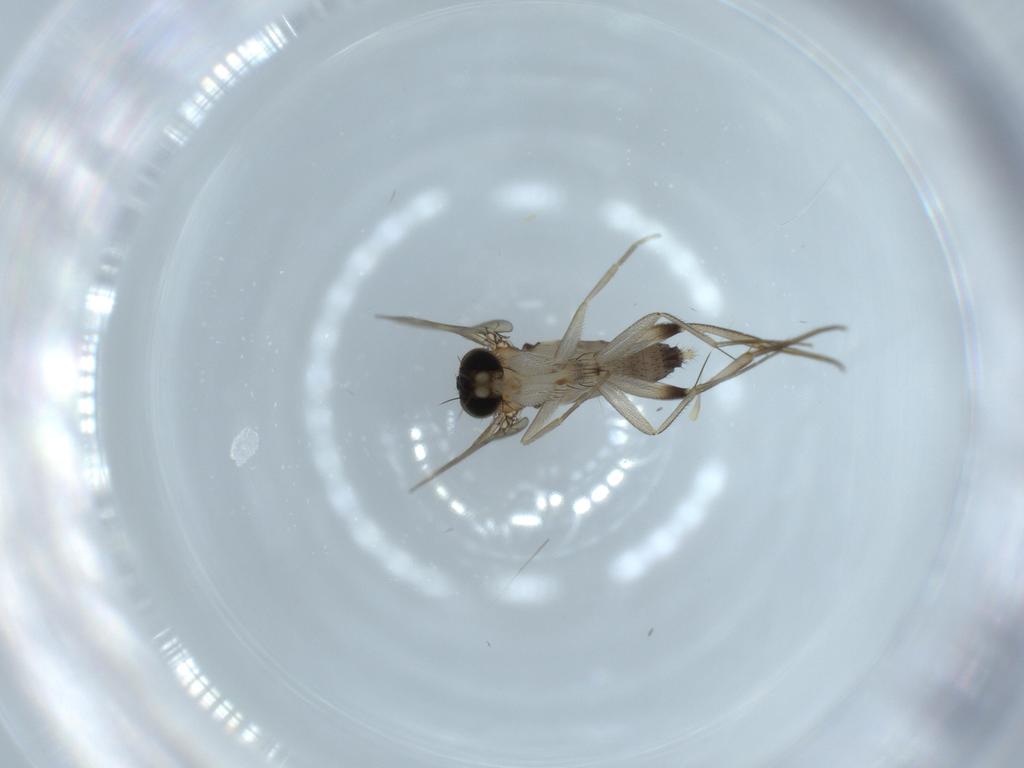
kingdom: Animalia
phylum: Arthropoda
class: Insecta
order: Diptera
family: Phoridae
